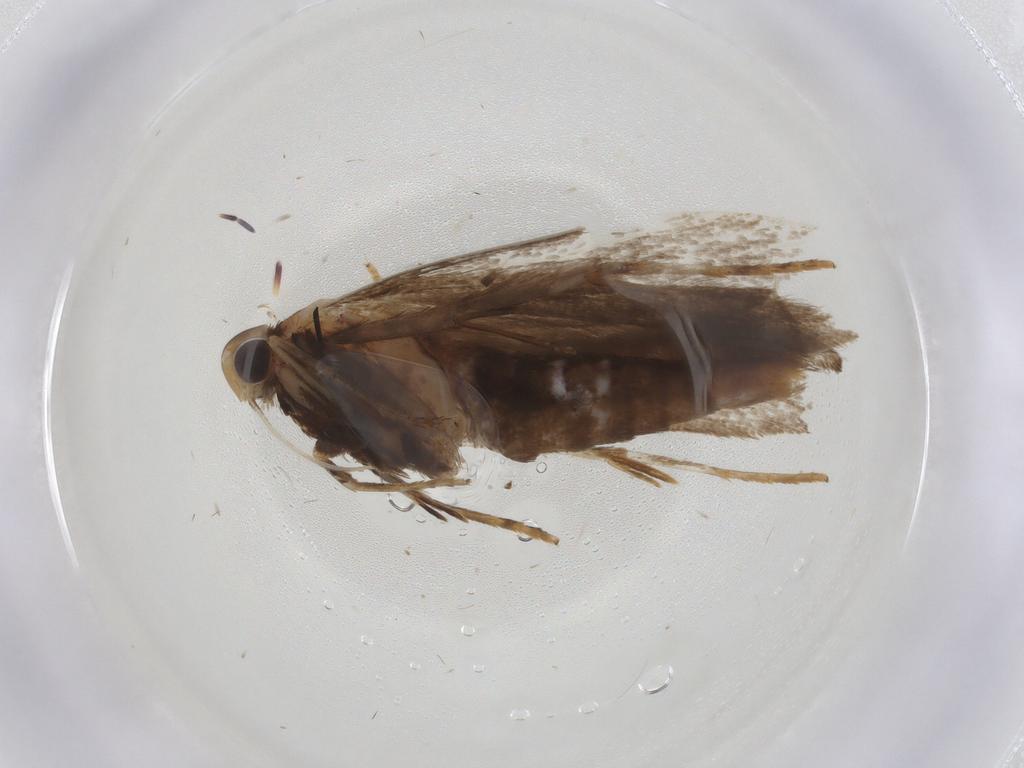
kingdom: Animalia
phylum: Arthropoda
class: Insecta
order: Lepidoptera
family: Gelechiidae
